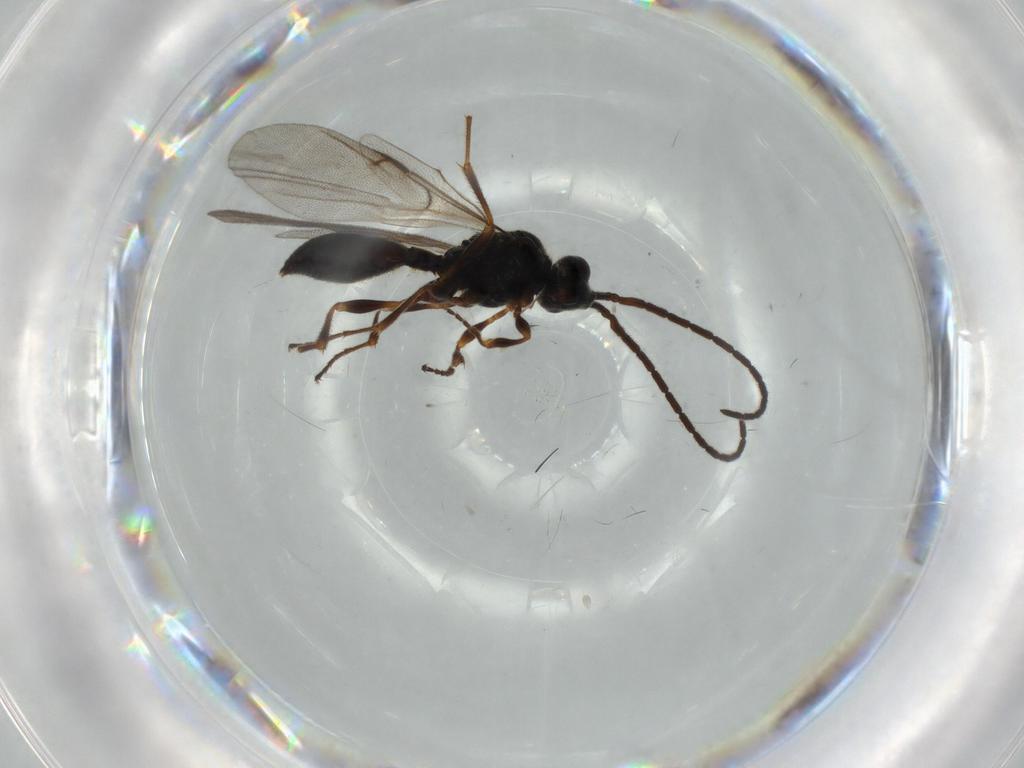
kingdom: Animalia
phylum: Arthropoda
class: Insecta
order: Hymenoptera
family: Vespidae
